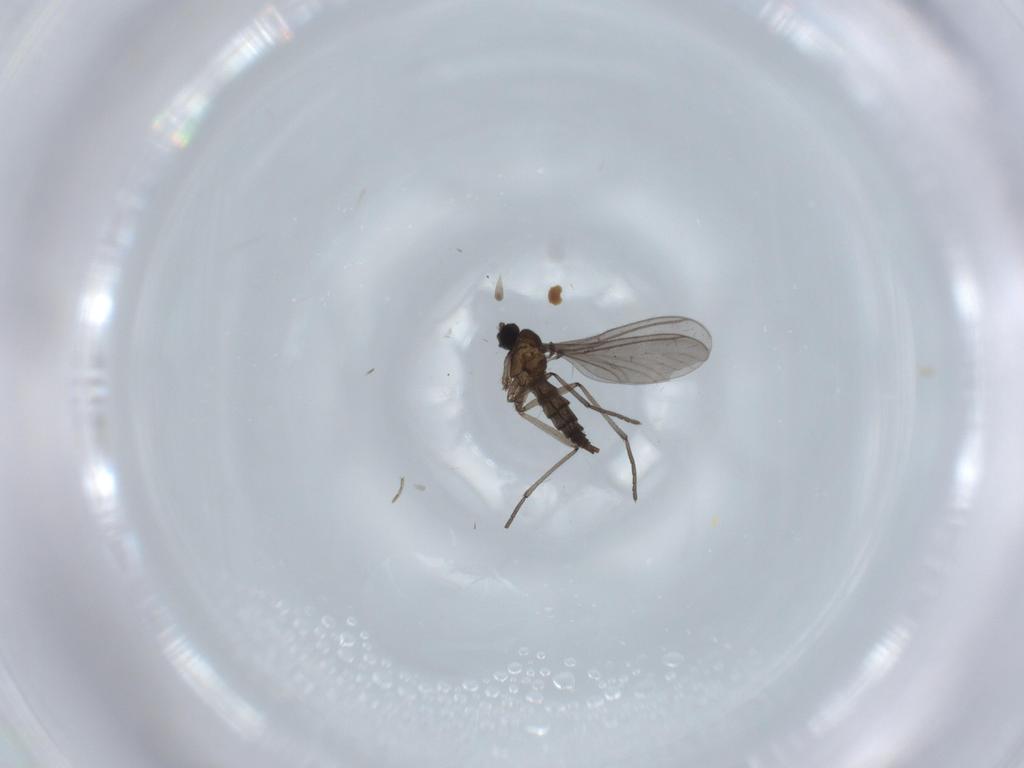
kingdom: Animalia
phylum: Arthropoda
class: Insecta
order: Diptera
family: Sciaridae
